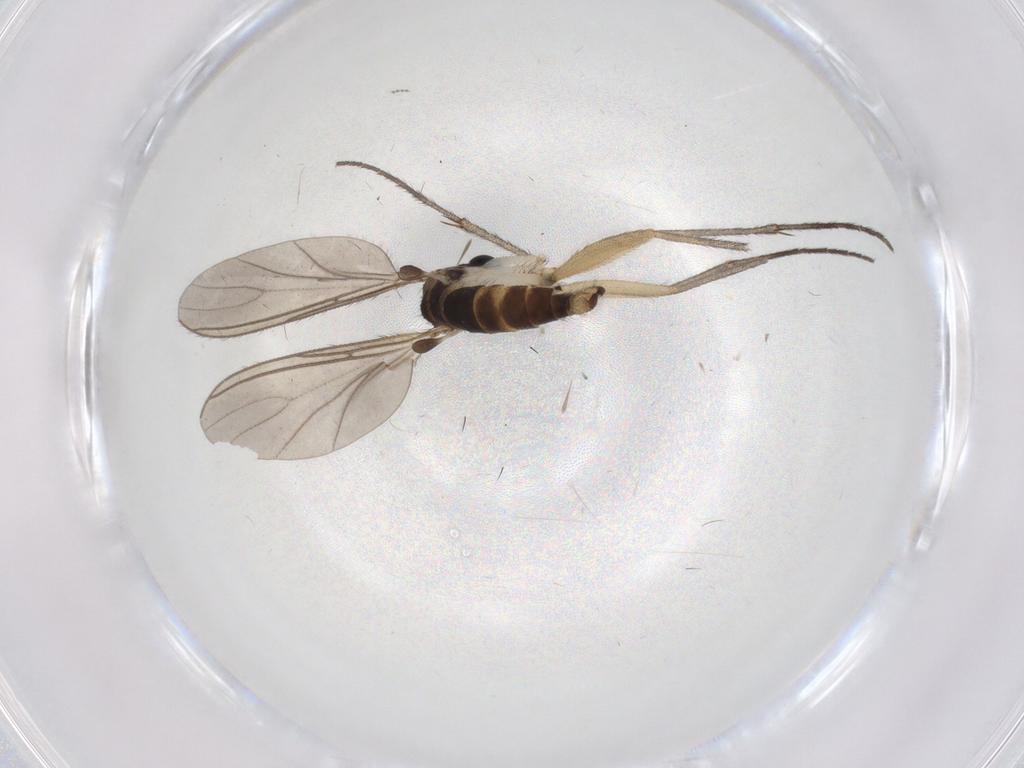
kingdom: Animalia
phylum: Arthropoda
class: Insecta
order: Diptera
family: Sciaridae
